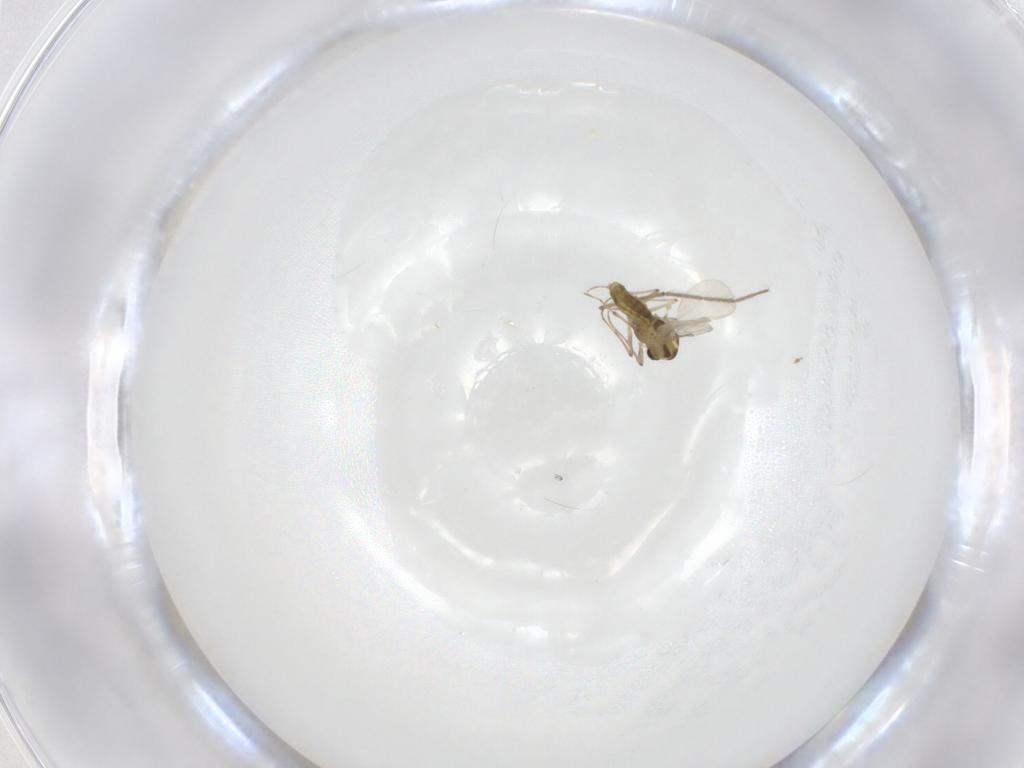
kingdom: Animalia
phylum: Arthropoda
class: Insecta
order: Diptera
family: Chironomidae
